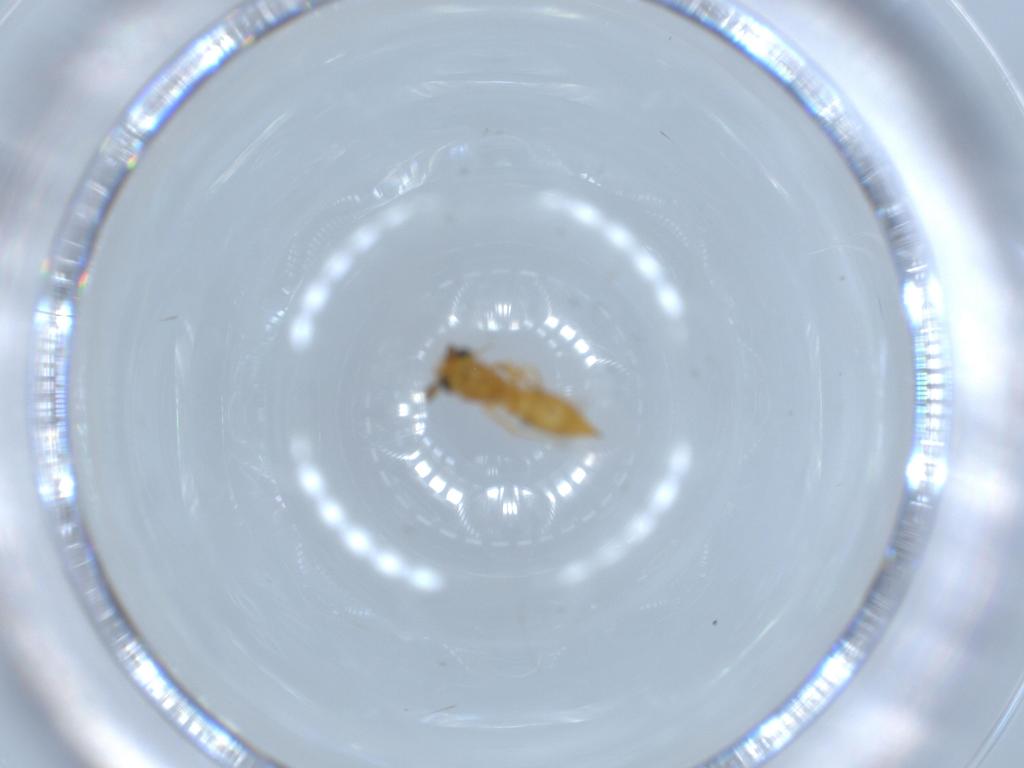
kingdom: Animalia
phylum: Arthropoda
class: Insecta
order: Hymenoptera
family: Scelionidae
